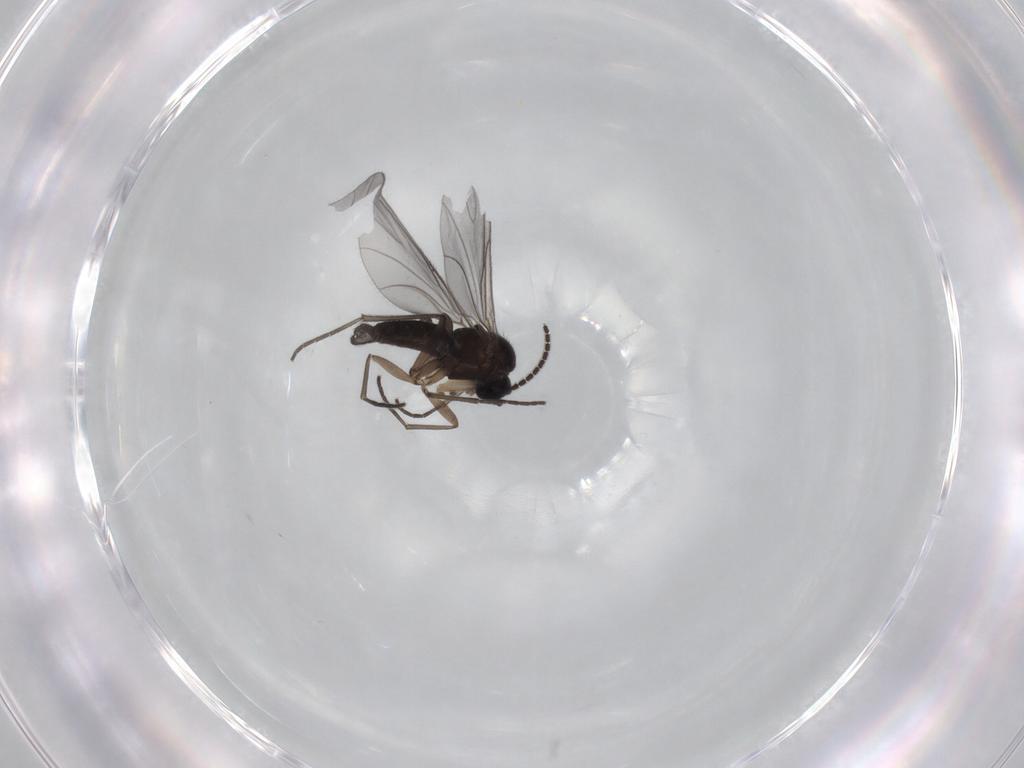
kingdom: Animalia
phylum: Arthropoda
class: Insecta
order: Diptera
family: Sciaridae
